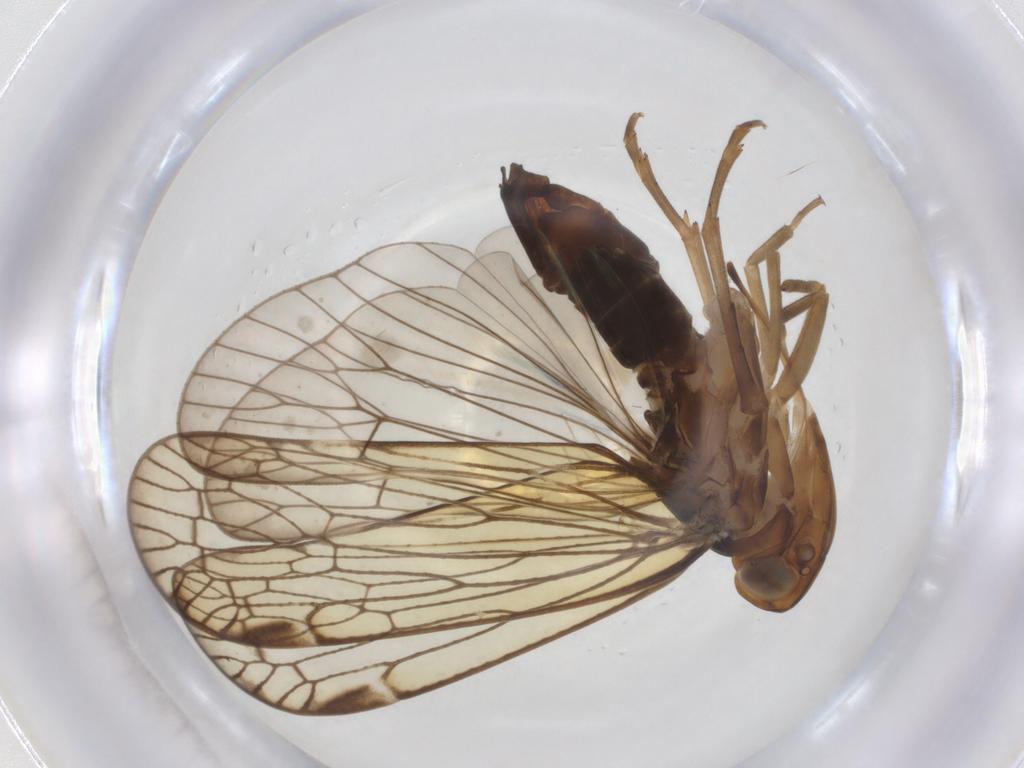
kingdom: Animalia
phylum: Arthropoda
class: Insecta
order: Hemiptera
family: Cixiidae
